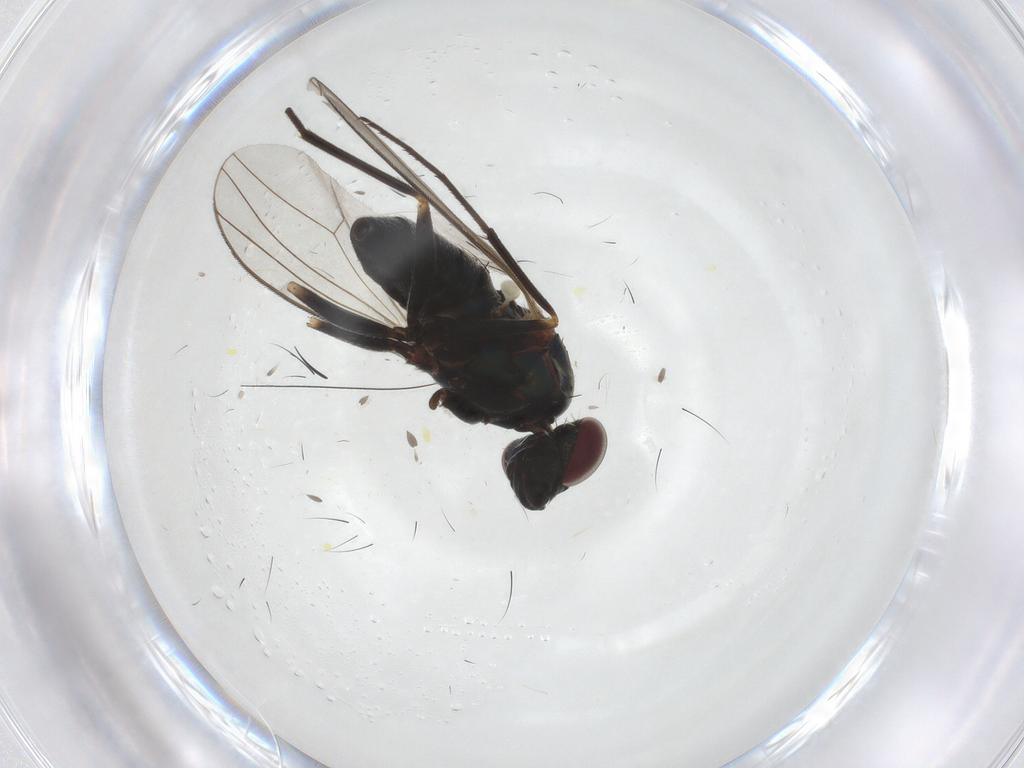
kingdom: Animalia
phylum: Arthropoda
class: Insecta
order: Diptera
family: Dolichopodidae
